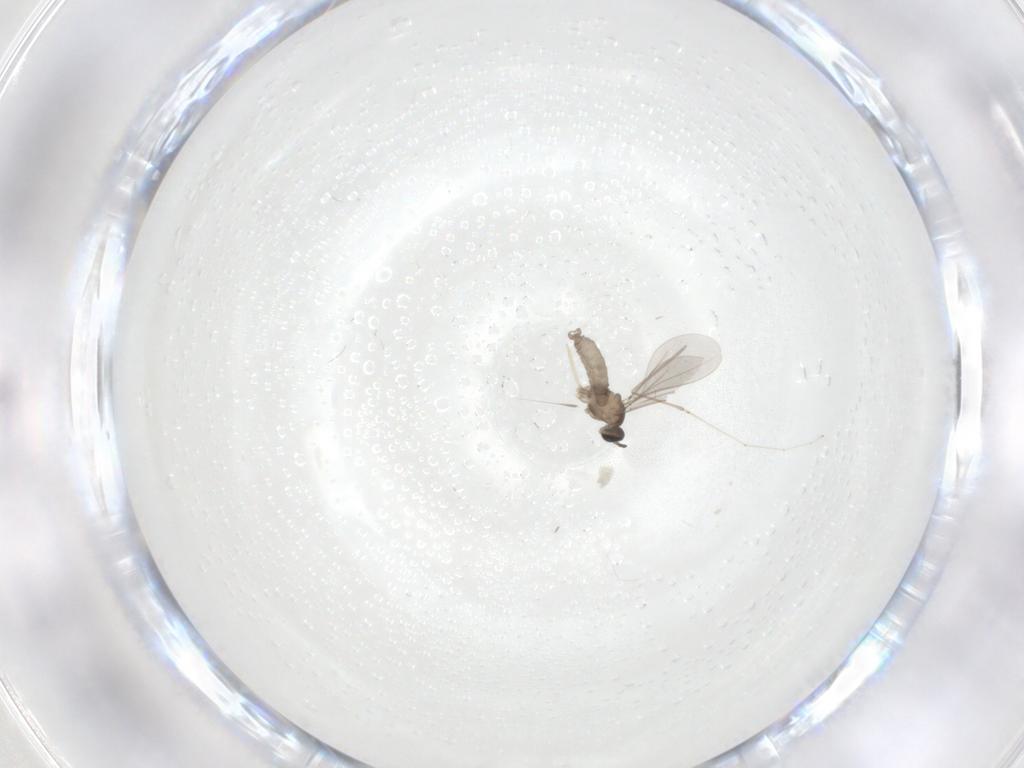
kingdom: Animalia
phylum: Arthropoda
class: Insecta
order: Diptera
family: Cecidomyiidae
